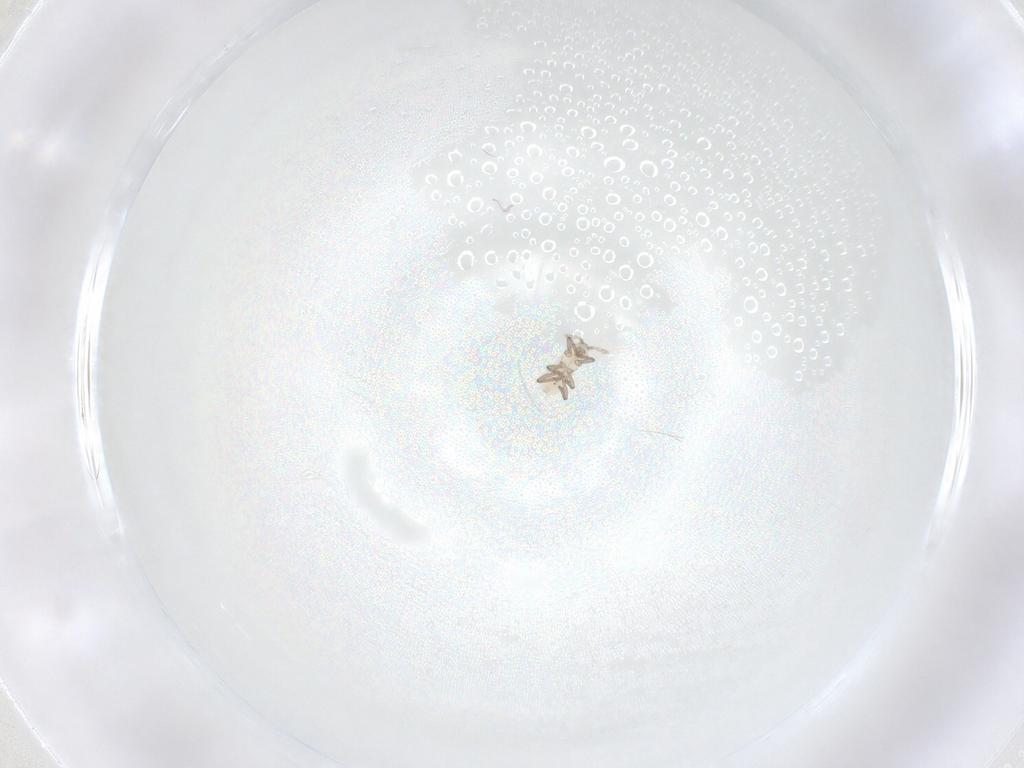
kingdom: Animalia
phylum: Arthropoda
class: Insecta
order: Hemiptera
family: Aphididae
